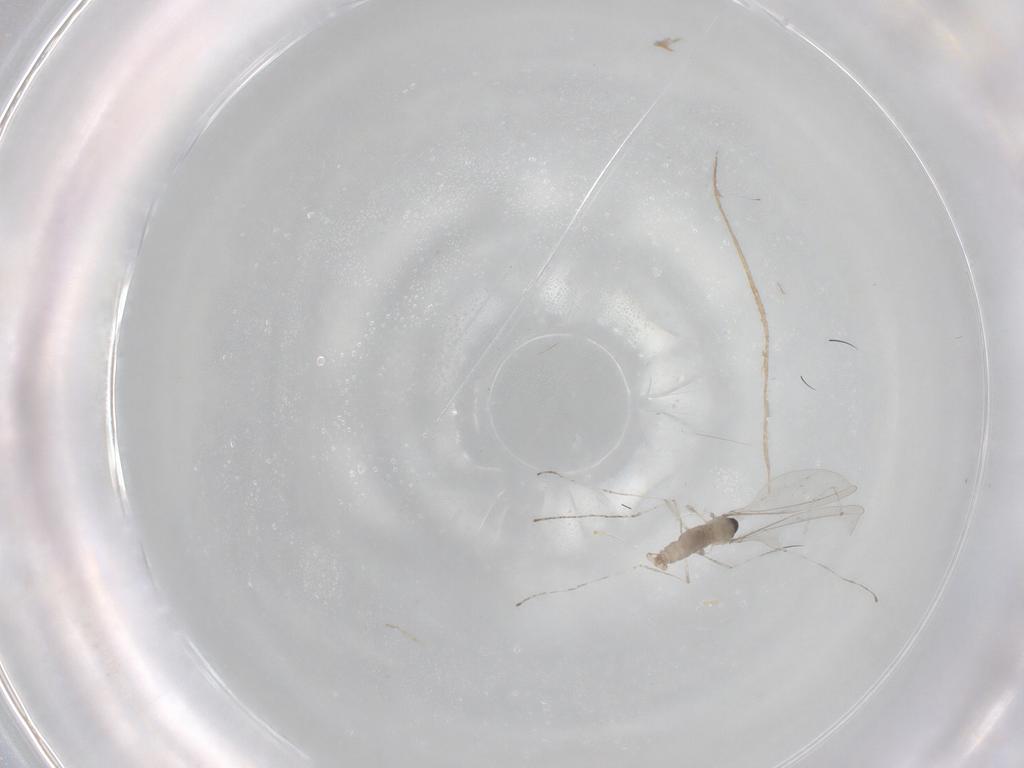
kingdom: Animalia
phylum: Arthropoda
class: Insecta
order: Diptera
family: Cecidomyiidae
